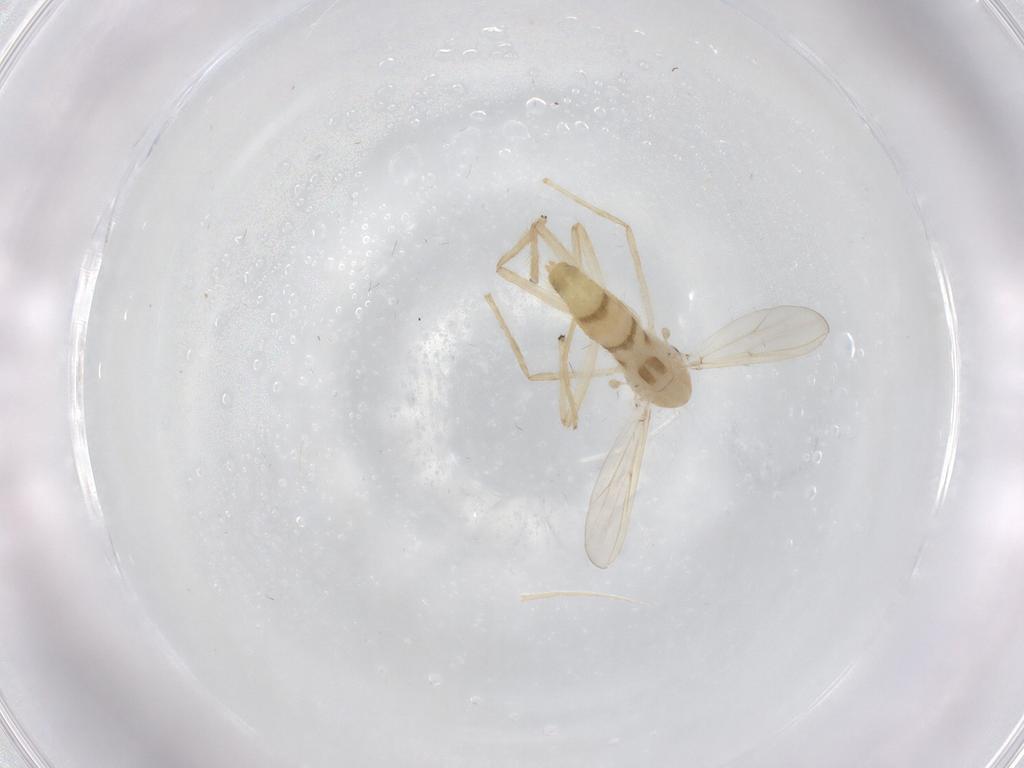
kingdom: Animalia
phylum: Arthropoda
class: Insecta
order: Diptera
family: Chironomidae
